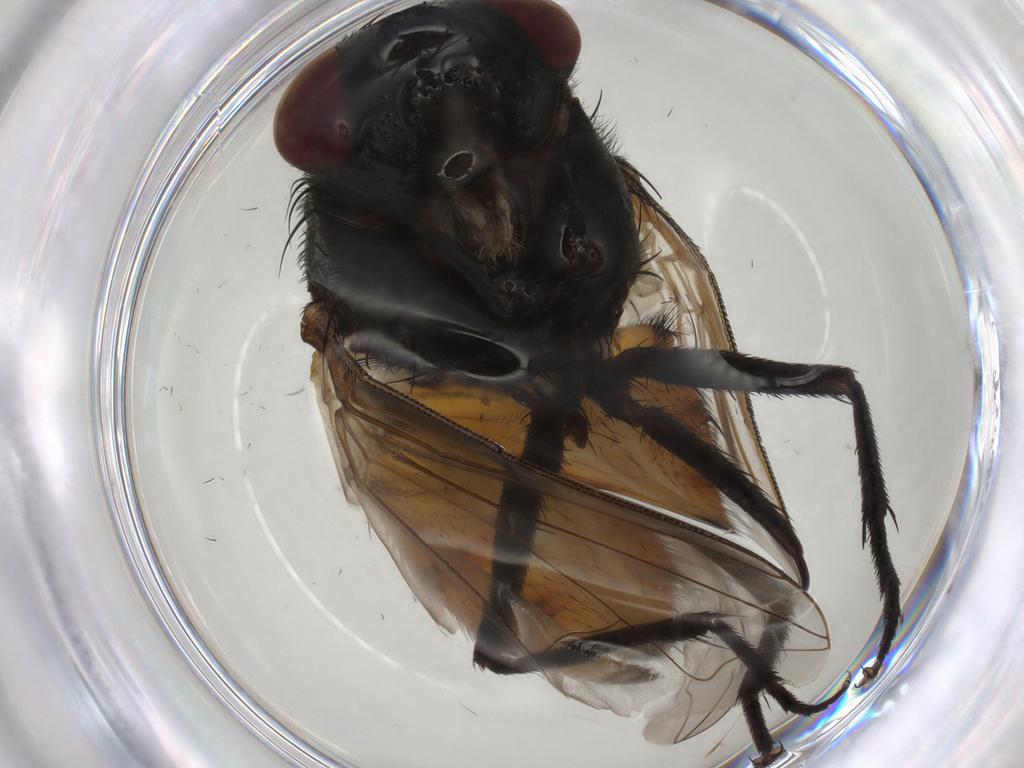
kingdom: Animalia
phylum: Arthropoda
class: Insecta
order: Diptera
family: Muscidae
